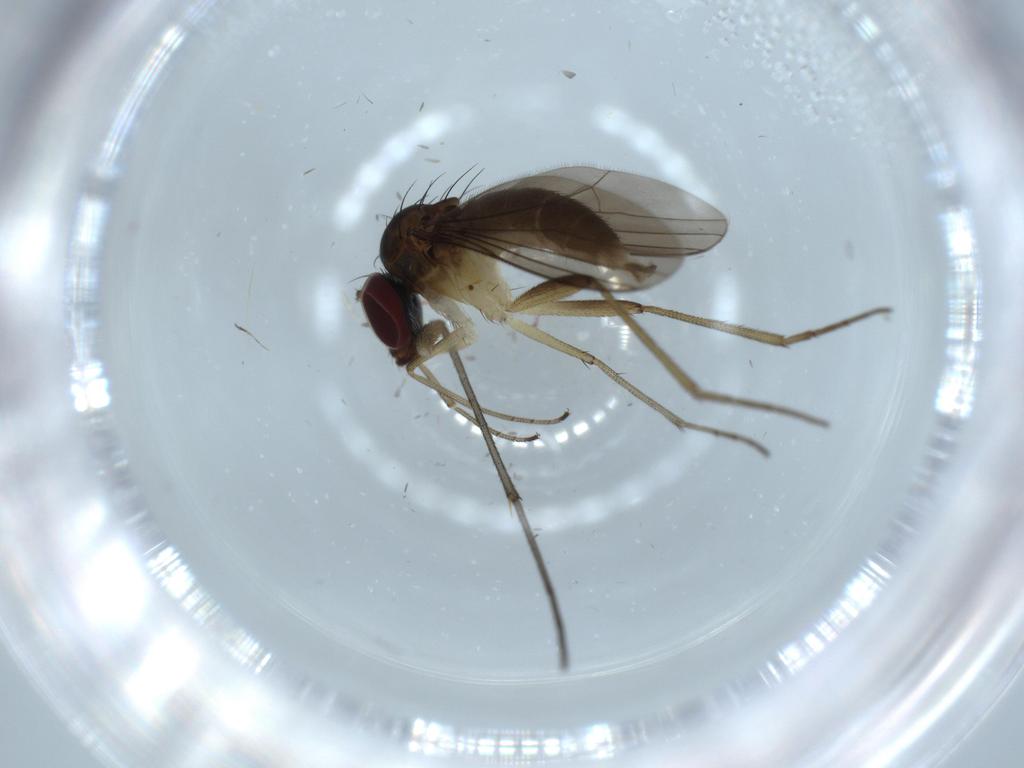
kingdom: Animalia
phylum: Arthropoda
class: Insecta
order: Diptera
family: Dolichopodidae
